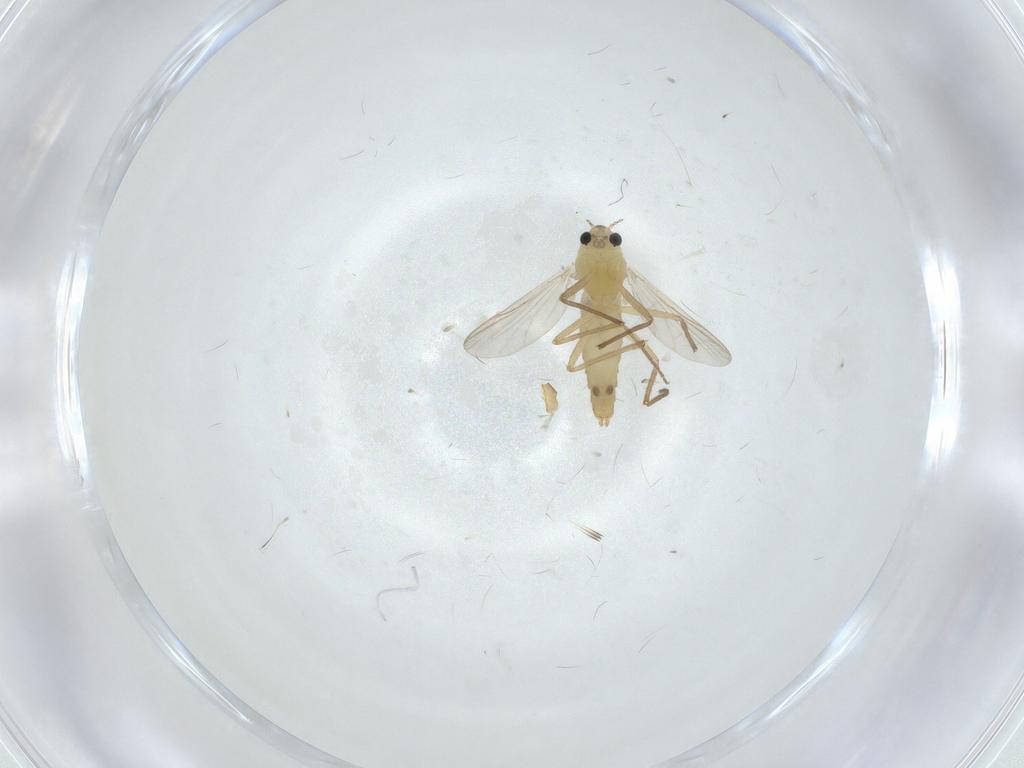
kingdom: Animalia
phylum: Arthropoda
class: Insecta
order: Diptera
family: Chironomidae
